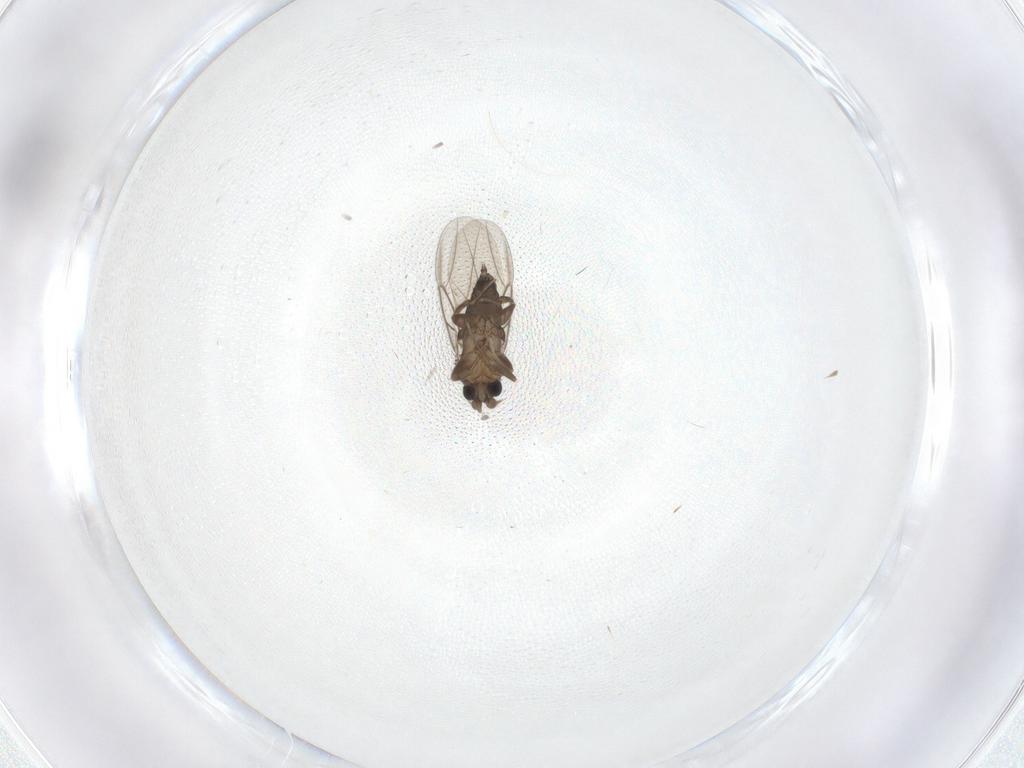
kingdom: Animalia
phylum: Arthropoda
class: Insecta
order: Diptera
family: Phoridae
